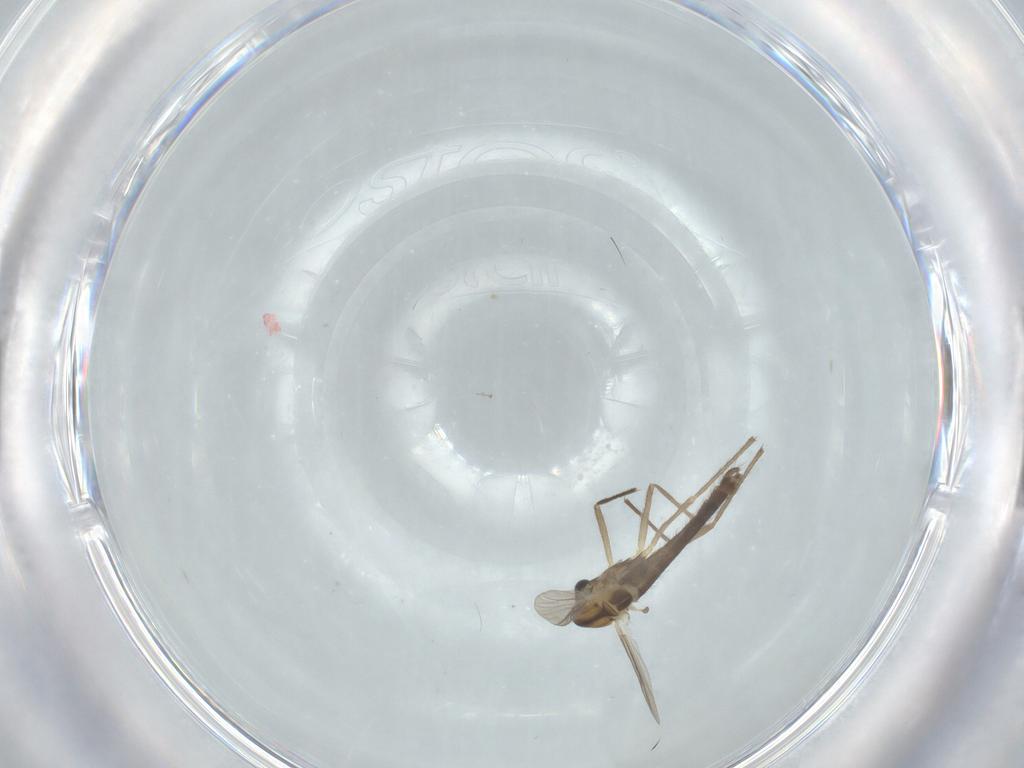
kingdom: Animalia
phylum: Arthropoda
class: Insecta
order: Diptera
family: Chironomidae
